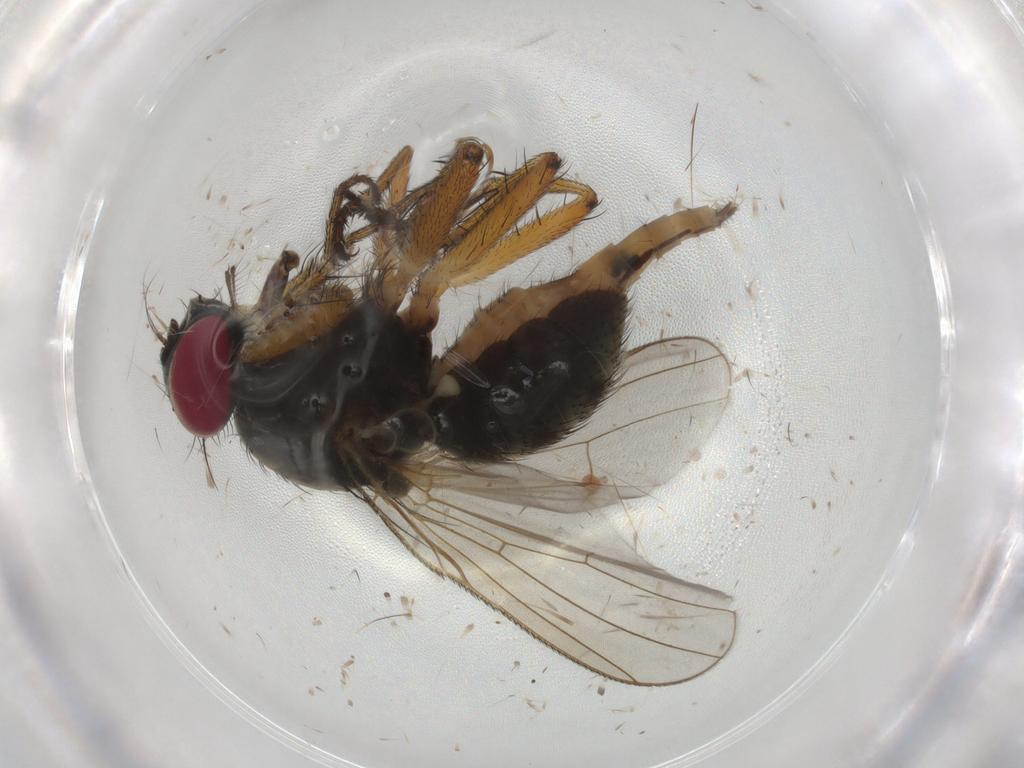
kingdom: Animalia
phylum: Arthropoda
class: Insecta
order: Diptera
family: Muscidae
